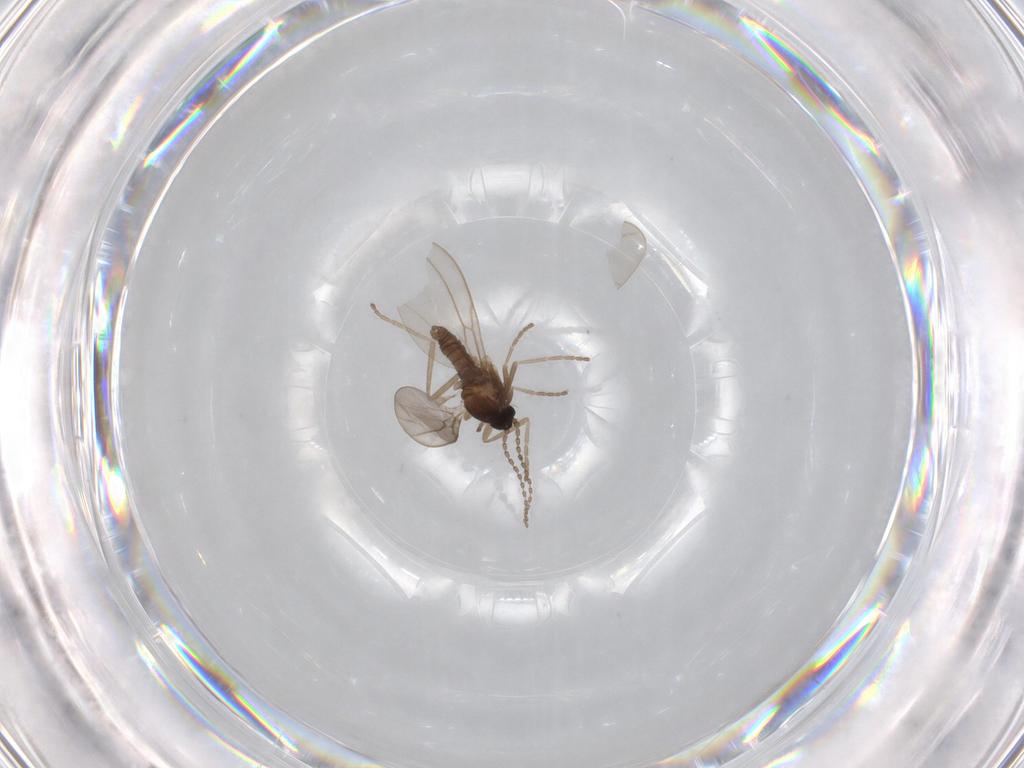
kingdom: Animalia
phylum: Arthropoda
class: Insecta
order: Diptera
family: Cecidomyiidae
